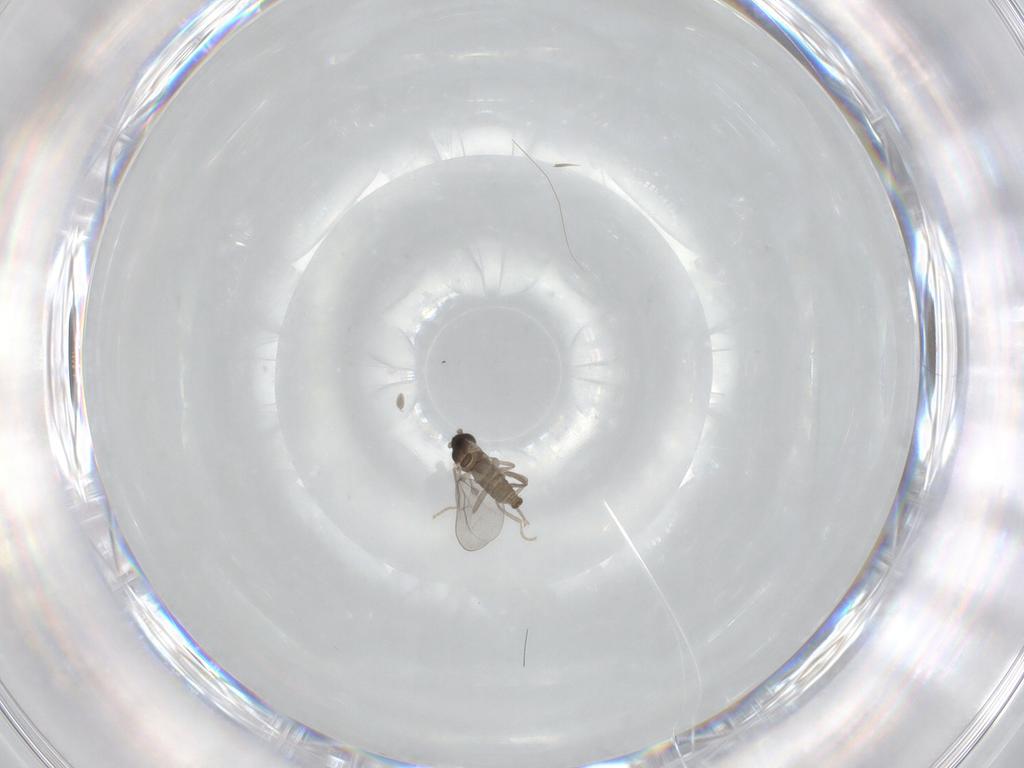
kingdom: Animalia
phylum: Arthropoda
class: Insecta
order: Diptera
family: Cecidomyiidae
